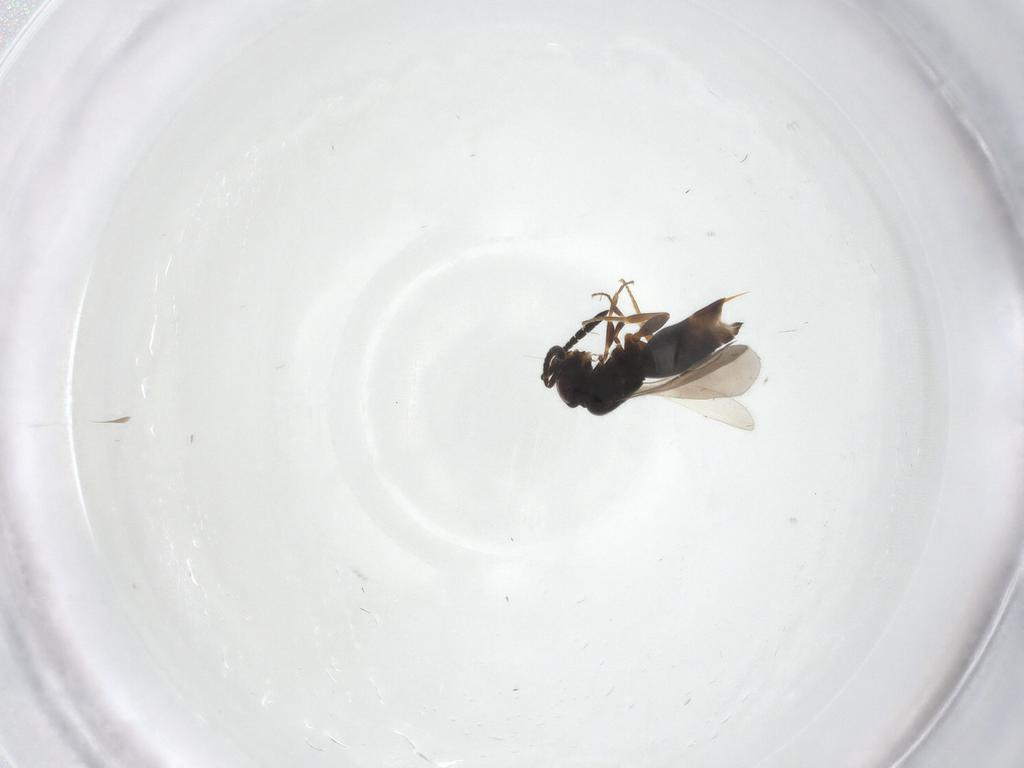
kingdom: Animalia
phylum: Arthropoda
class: Insecta
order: Hymenoptera
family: Ceraphronidae
